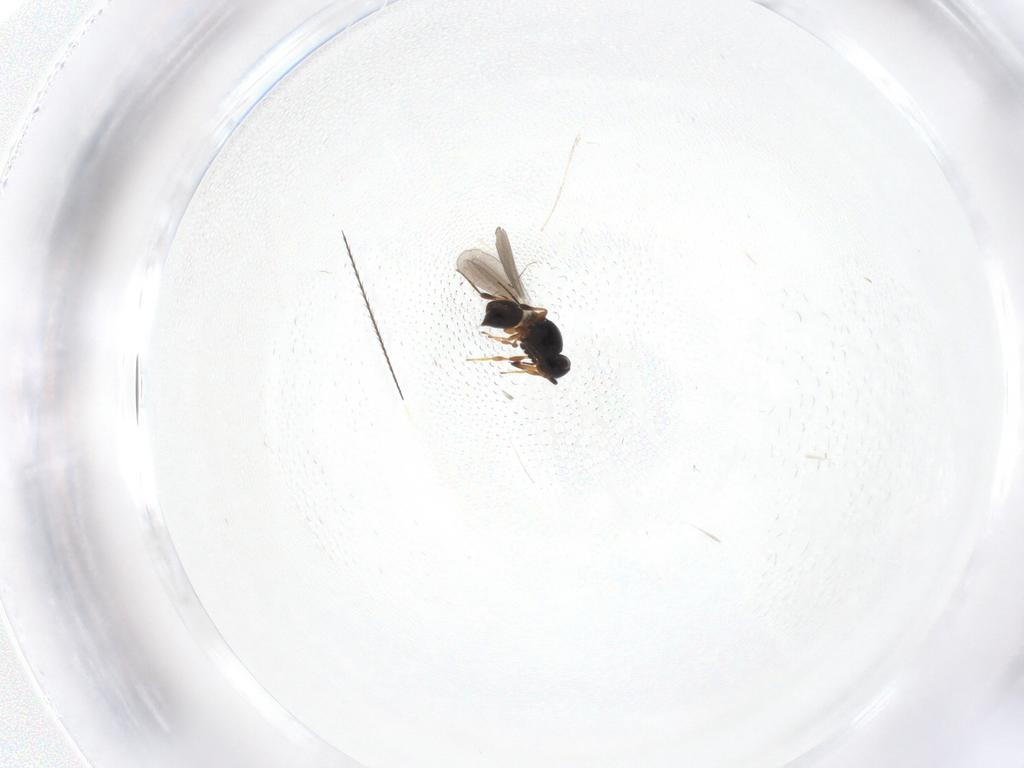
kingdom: Animalia
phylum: Arthropoda
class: Insecta
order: Hymenoptera
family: Platygastridae
